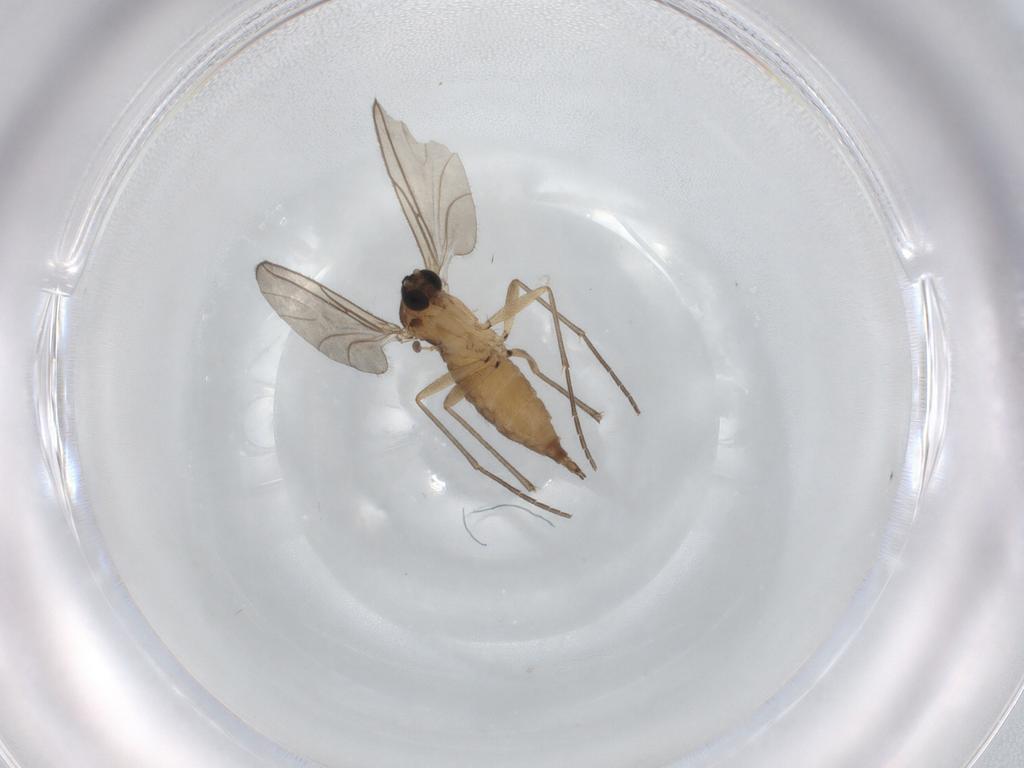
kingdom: Animalia
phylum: Arthropoda
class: Insecta
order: Diptera
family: Sciaridae
